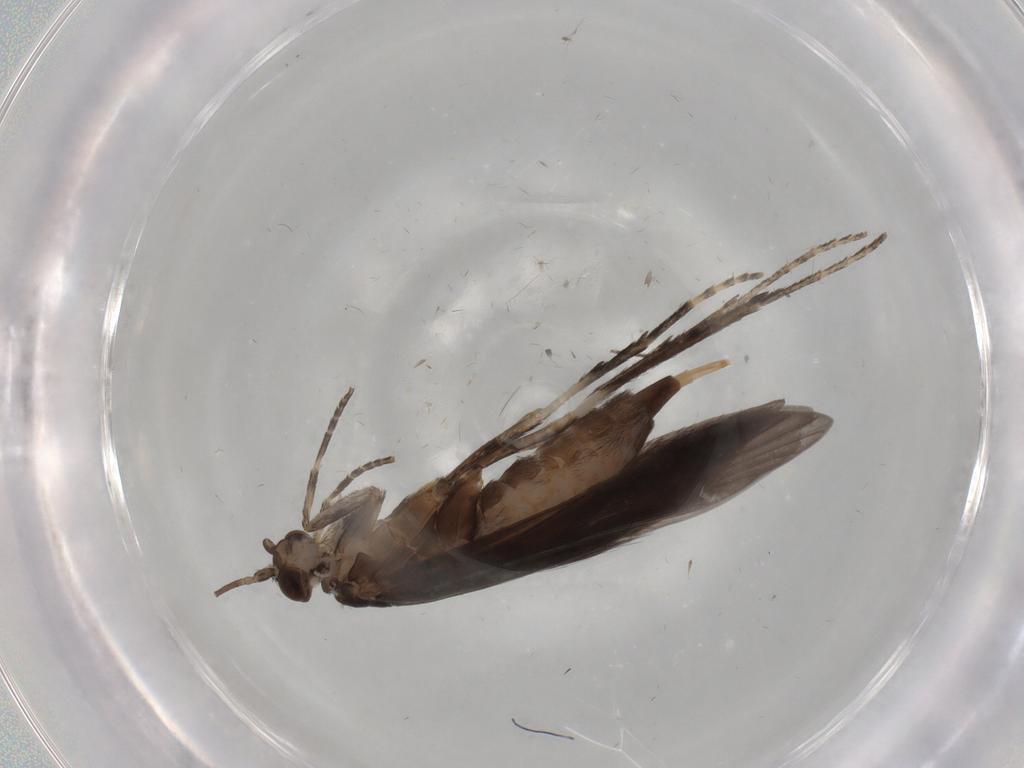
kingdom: Animalia
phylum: Arthropoda
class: Insecta
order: Trichoptera
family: Xiphocentronidae
